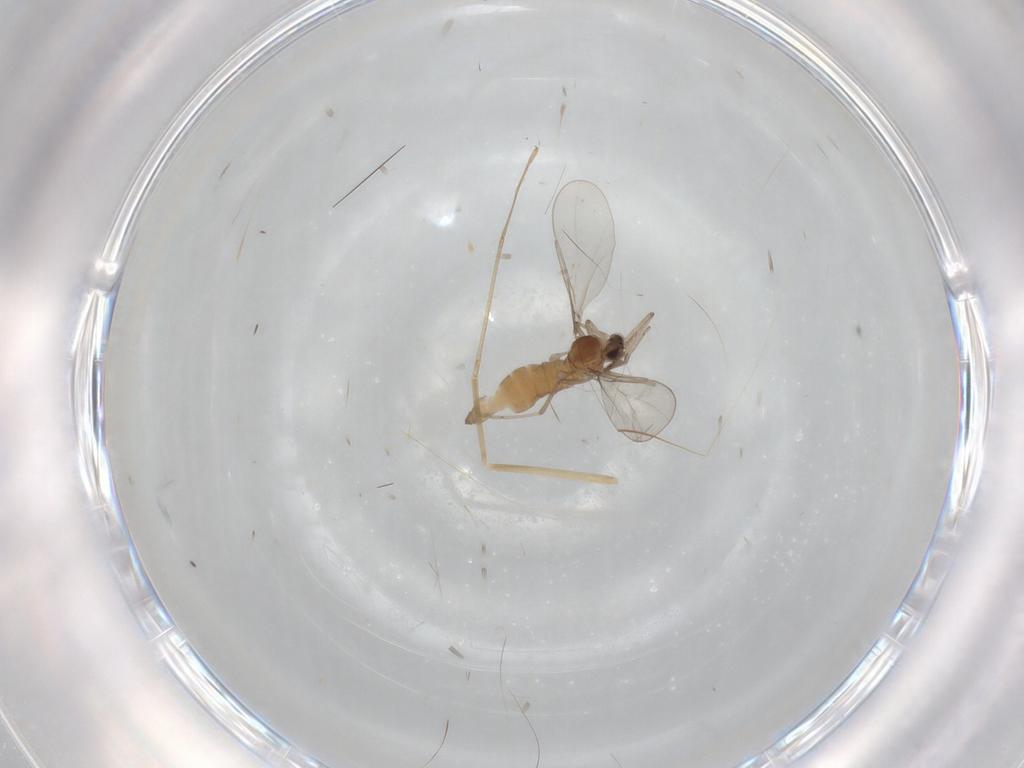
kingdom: Animalia
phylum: Arthropoda
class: Insecta
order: Diptera
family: Cecidomyiidae
